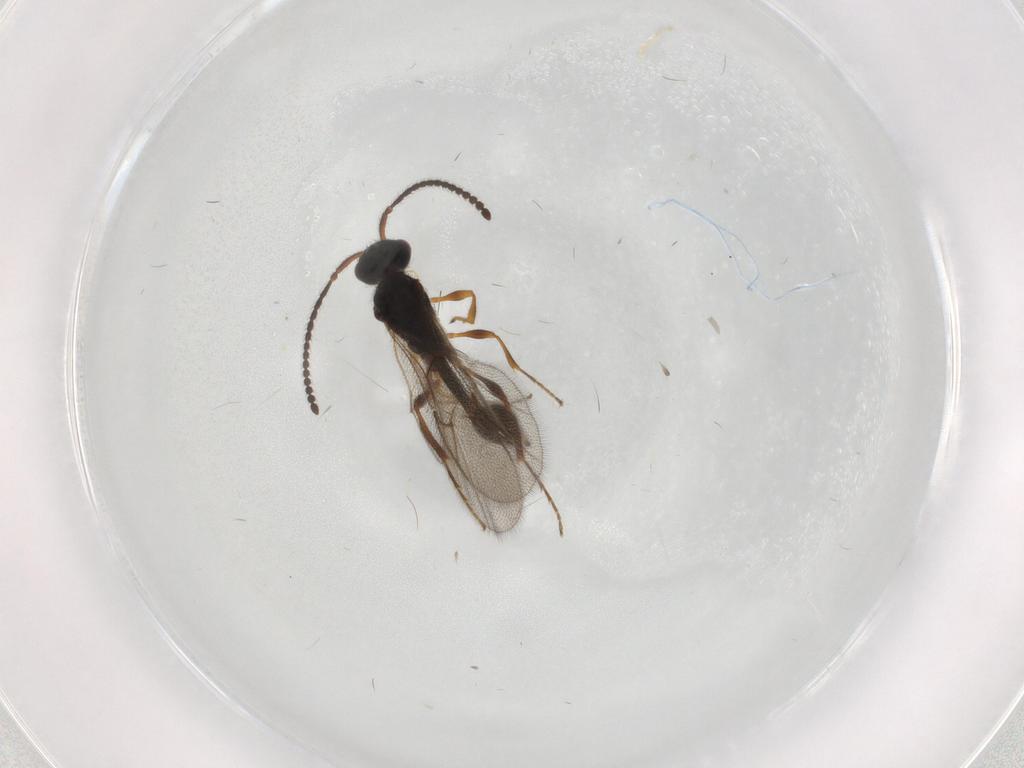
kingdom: Animalia
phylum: Arthropoda
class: Insecta
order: Hymenoptera
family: Diapriidae
